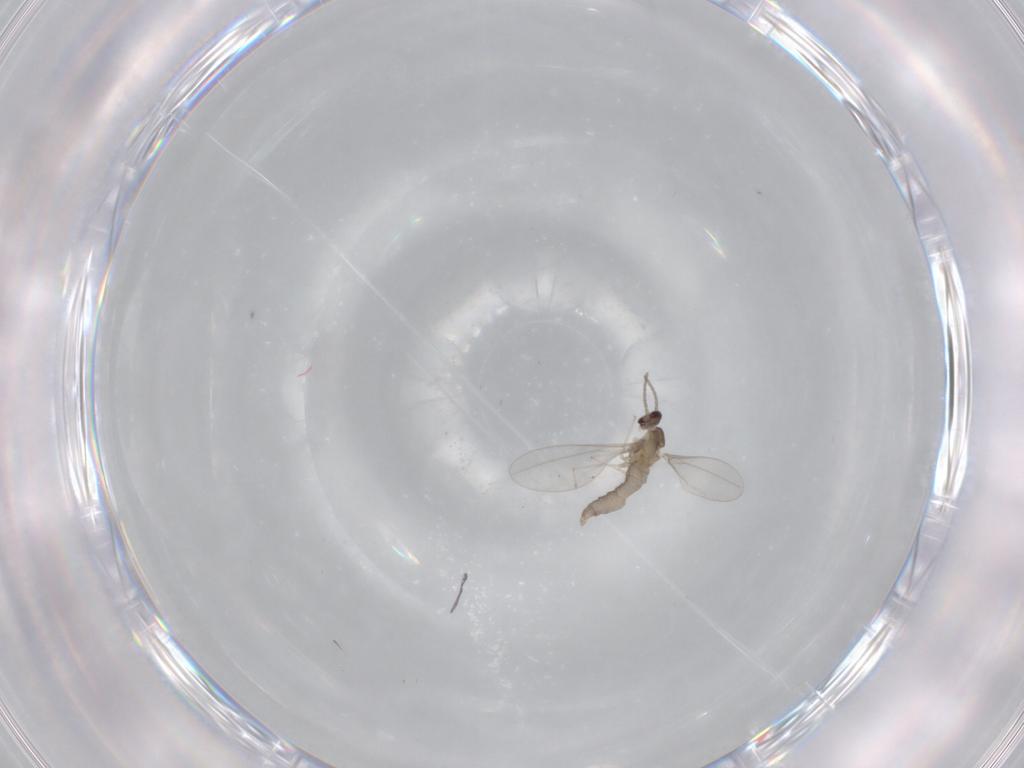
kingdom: Animalia
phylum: Arthropoda
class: Insecta
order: Diptera
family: Cecidomyiidae
